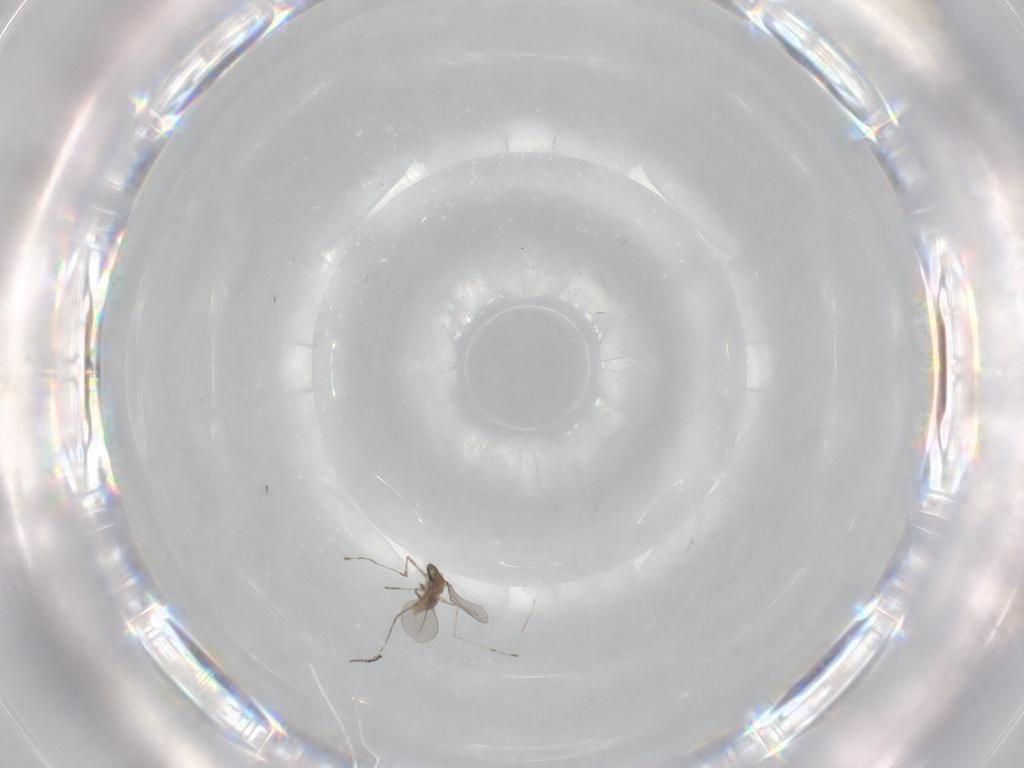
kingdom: Animalia
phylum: Arthropoda
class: Insecta
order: Diptera
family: Cecidomyiidae
